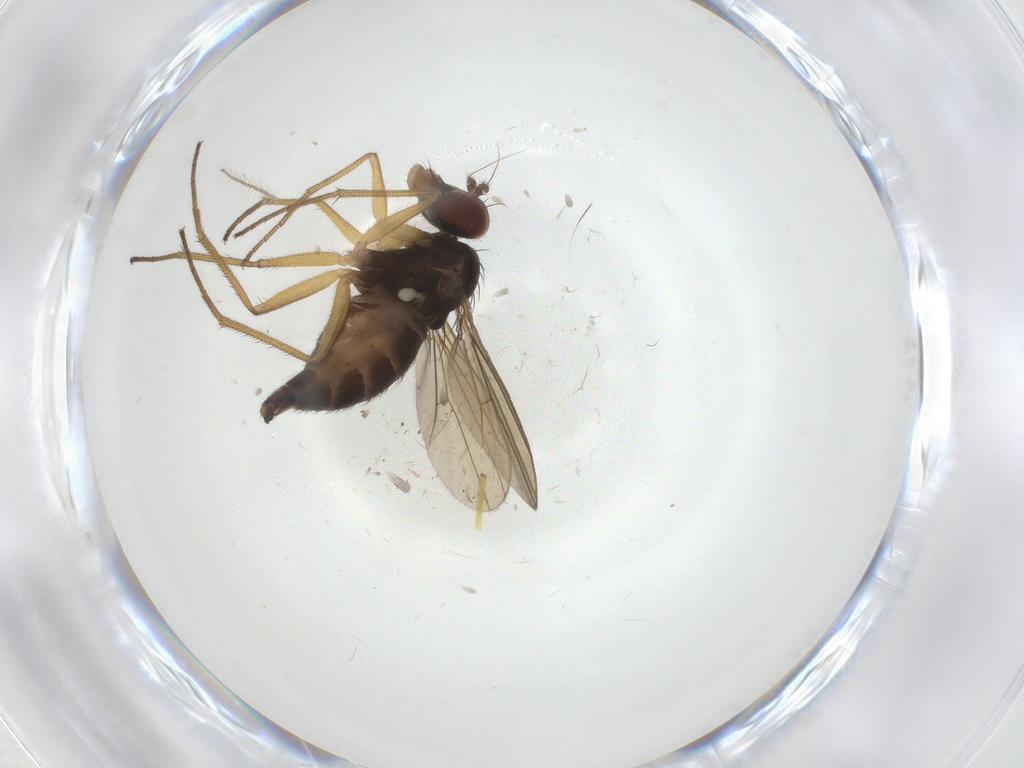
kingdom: Animalia
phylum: Arthropoda
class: Insecta
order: Diptera
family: Dolichopodidae
